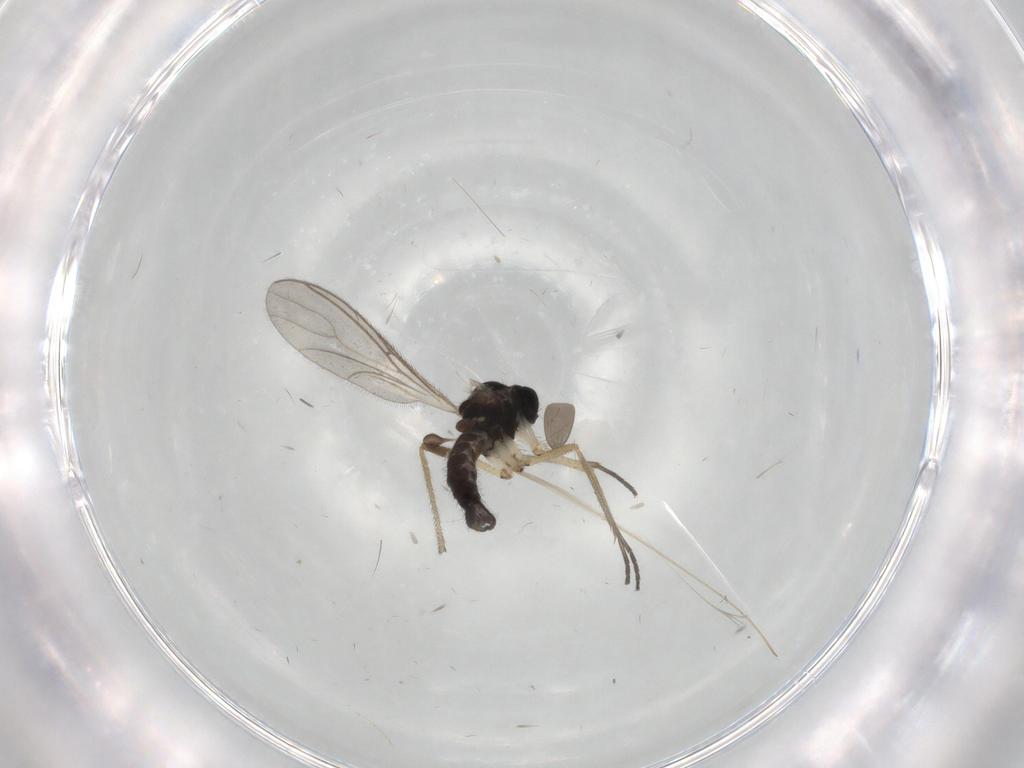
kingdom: Animalia
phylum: Arthropoda
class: Insecta
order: Diptera
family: Sciaridae
